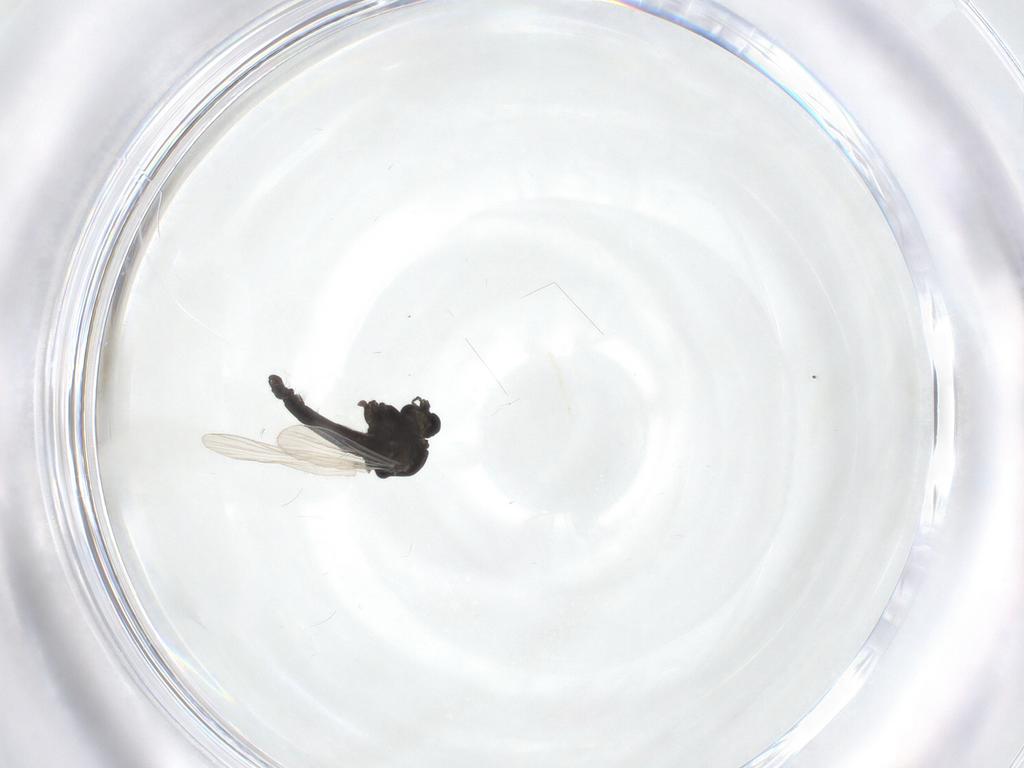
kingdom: Animalia
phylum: Arthropoda
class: Insecta
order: Diptera
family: Chironomidae
